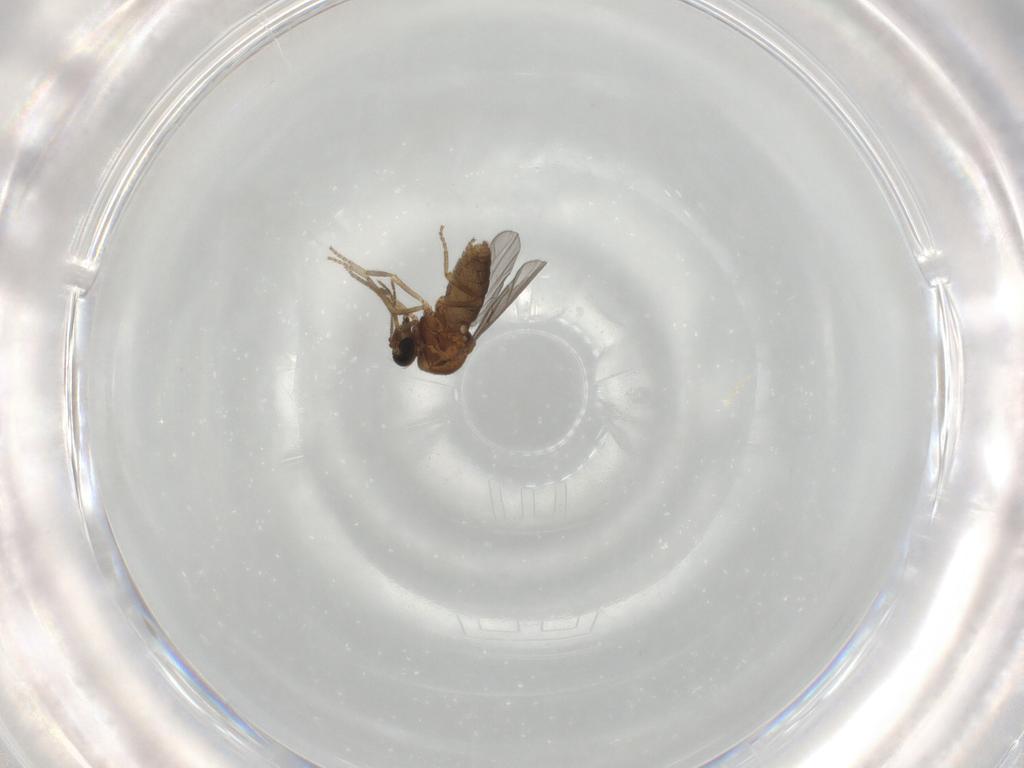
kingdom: Animalia
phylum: Arthropoda
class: Insecta
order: Diptera
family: Ceratopogonidae
